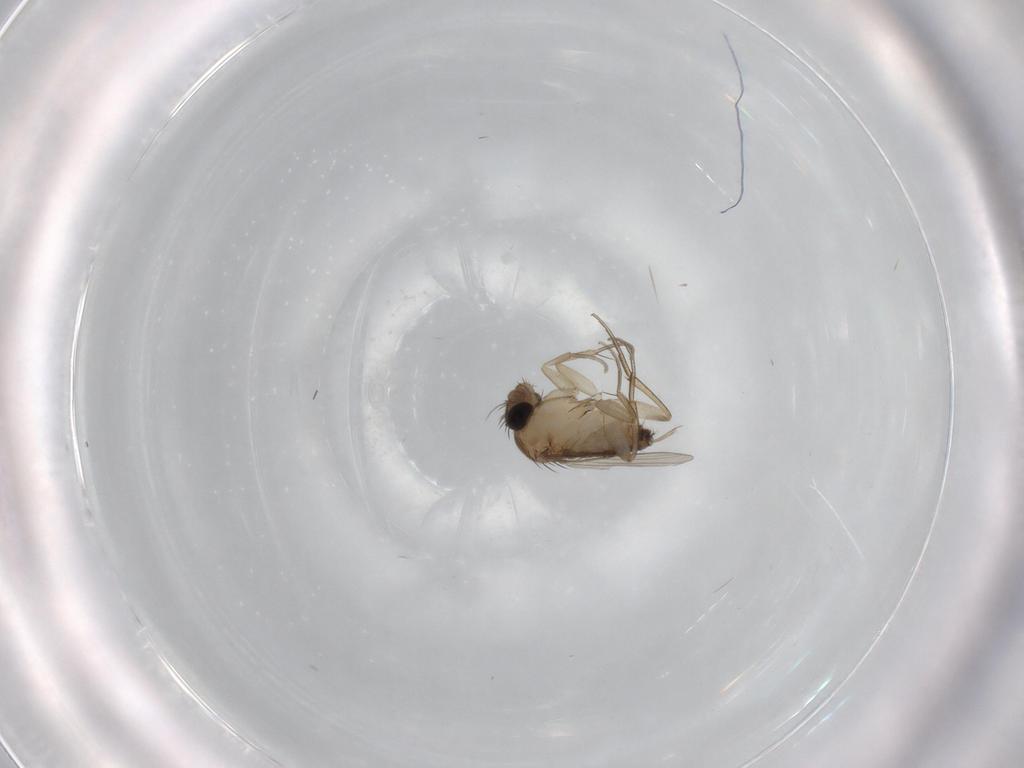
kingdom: Animalia
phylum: Arthropoda
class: Insecta
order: Diptera
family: Cecidomyiidae
